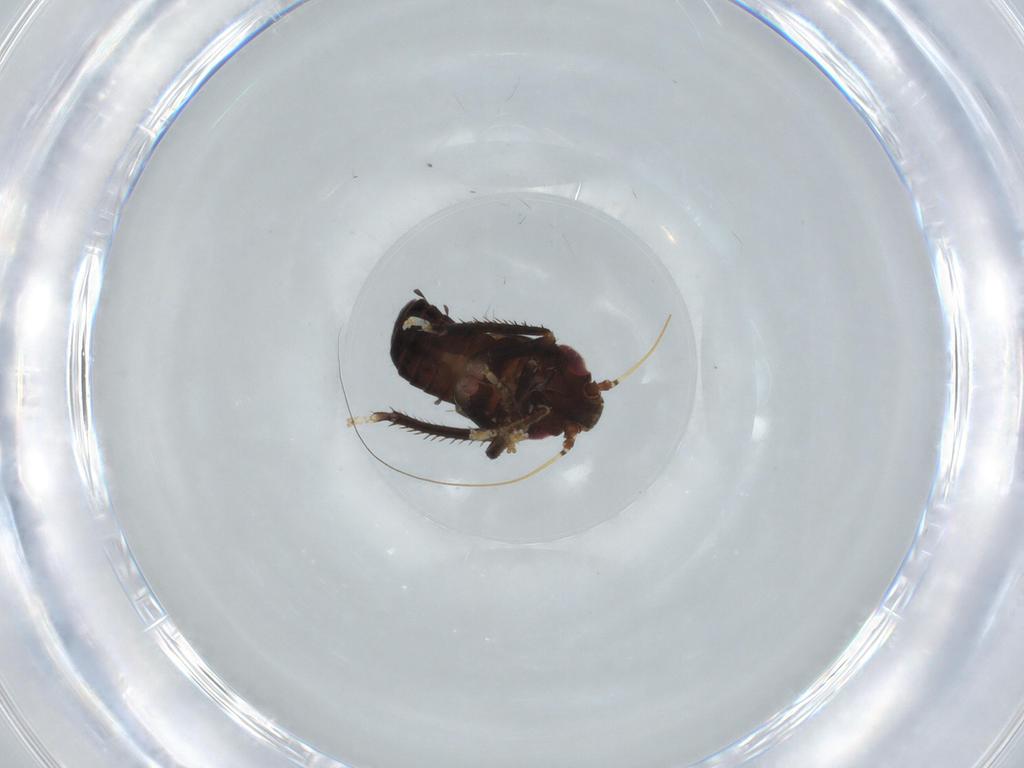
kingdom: Animalia
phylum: Arthropoda
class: Insecta
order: Hemiptera
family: Cicadellidae
